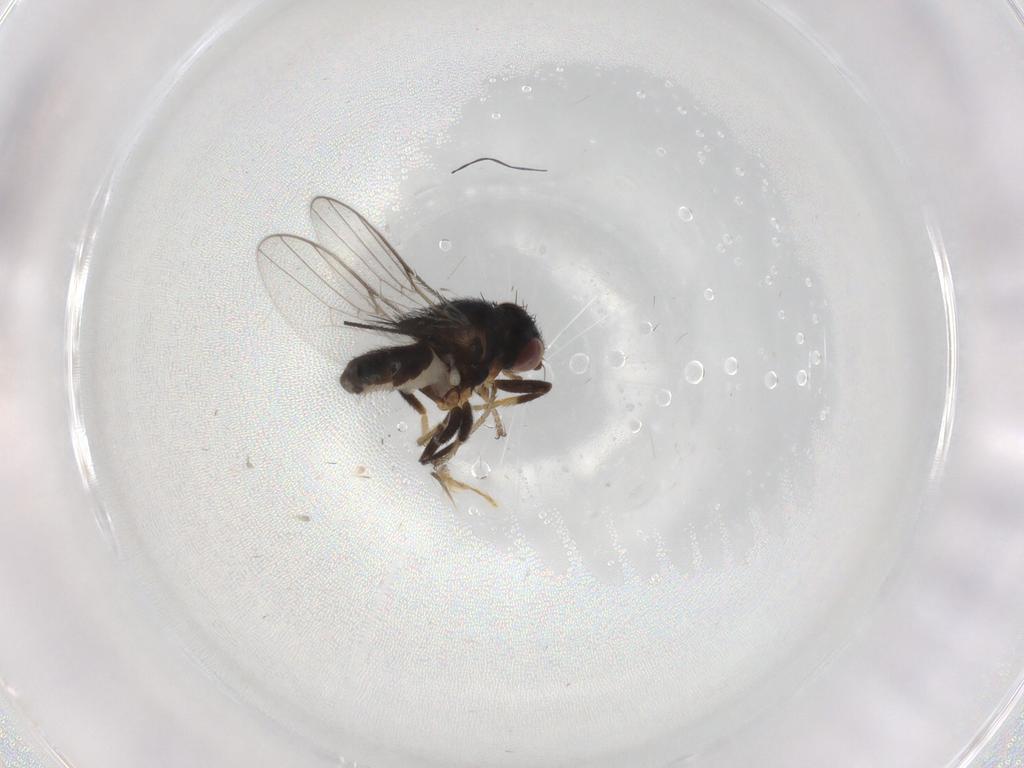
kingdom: Animalia
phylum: Arthropoda
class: Insecta
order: Diptera
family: Chloropidae
